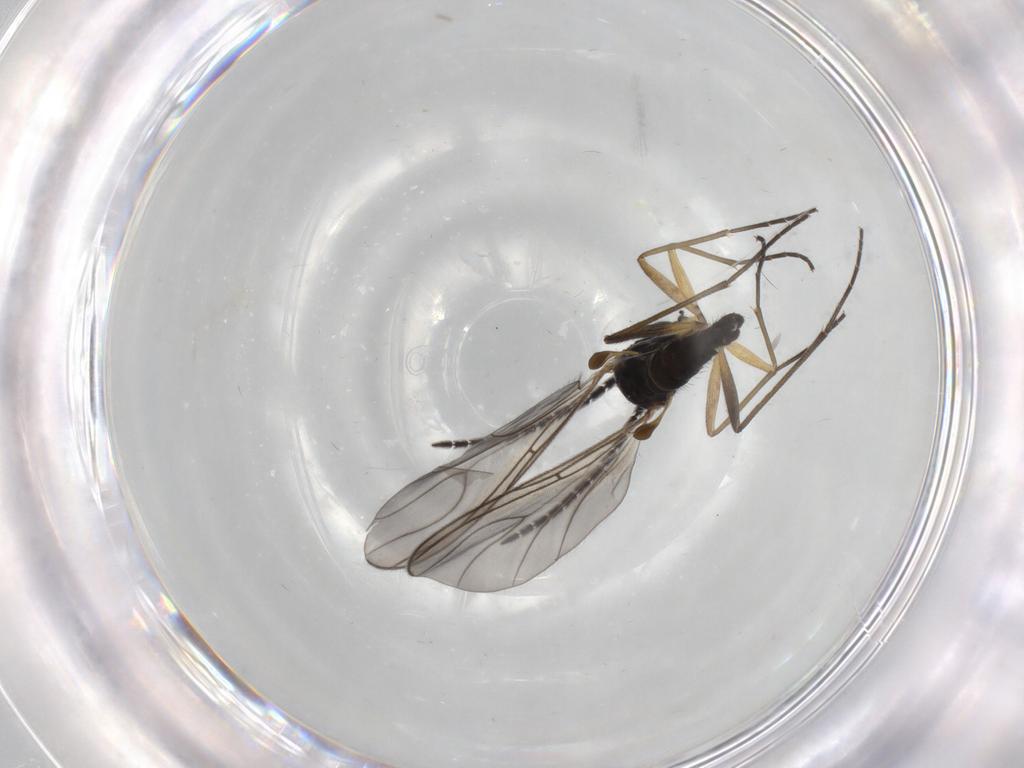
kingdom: Animalia
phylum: Arthropoda
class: Insecta
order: Diptera
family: Sciaridae
